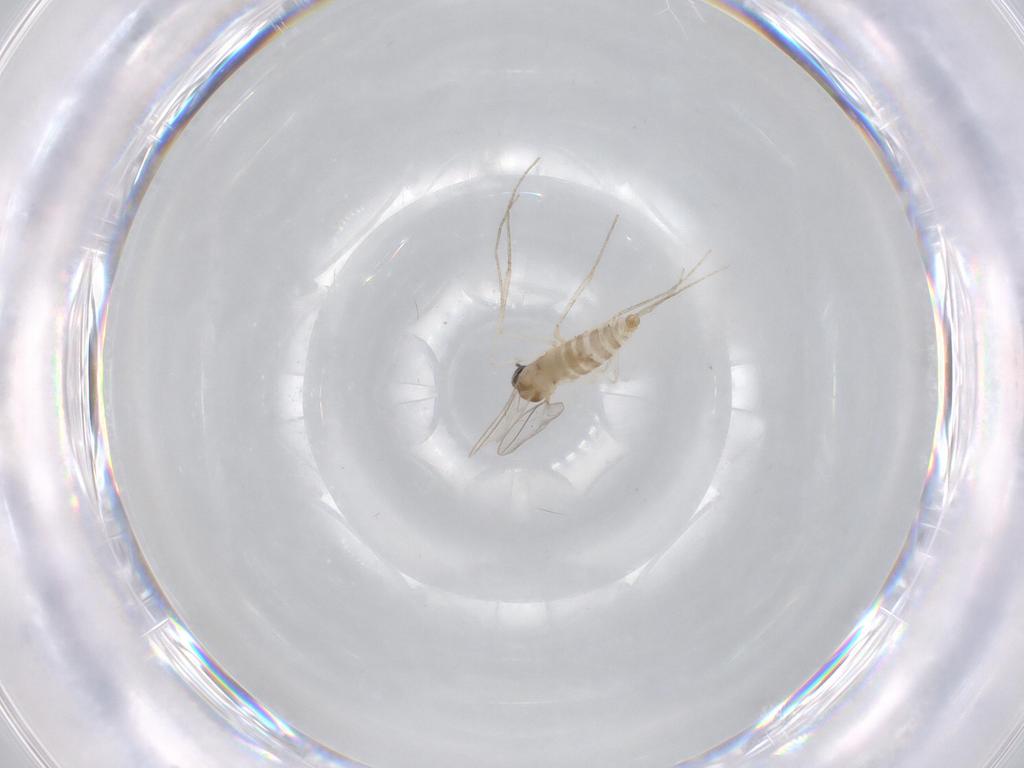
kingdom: Animalia
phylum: Arthropoda
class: Insecta
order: Diptera
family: Cecidomyiidae
